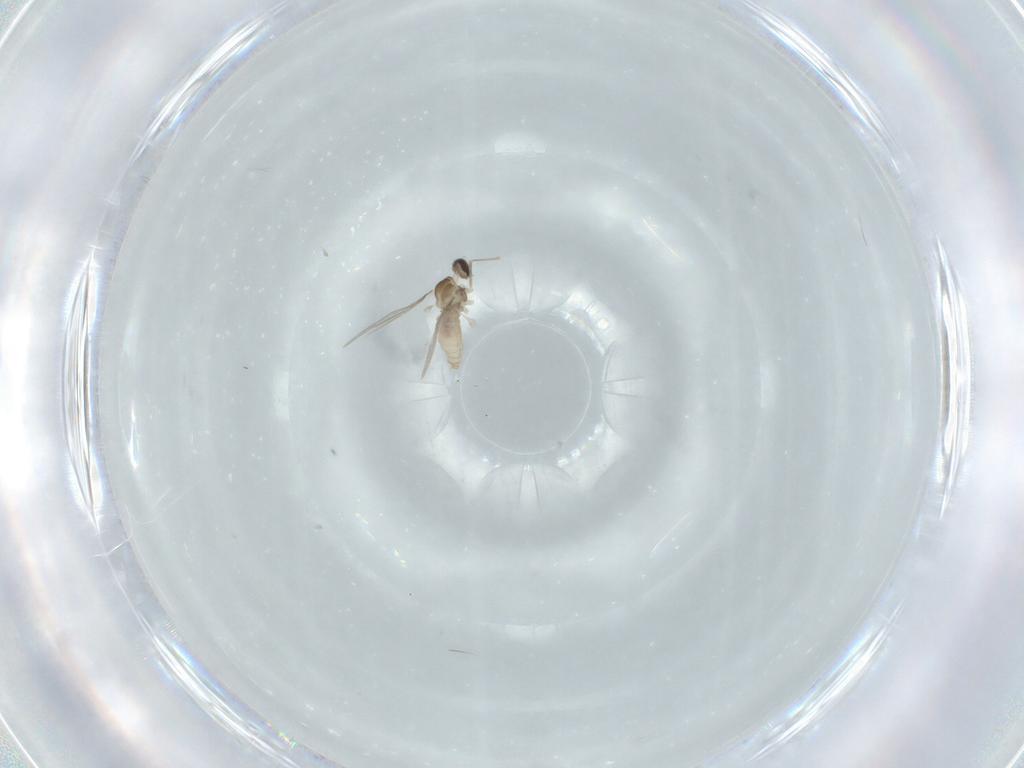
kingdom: Animalia
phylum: Arthropoda
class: Insecta
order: Diptera
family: Cecidomyiidae
